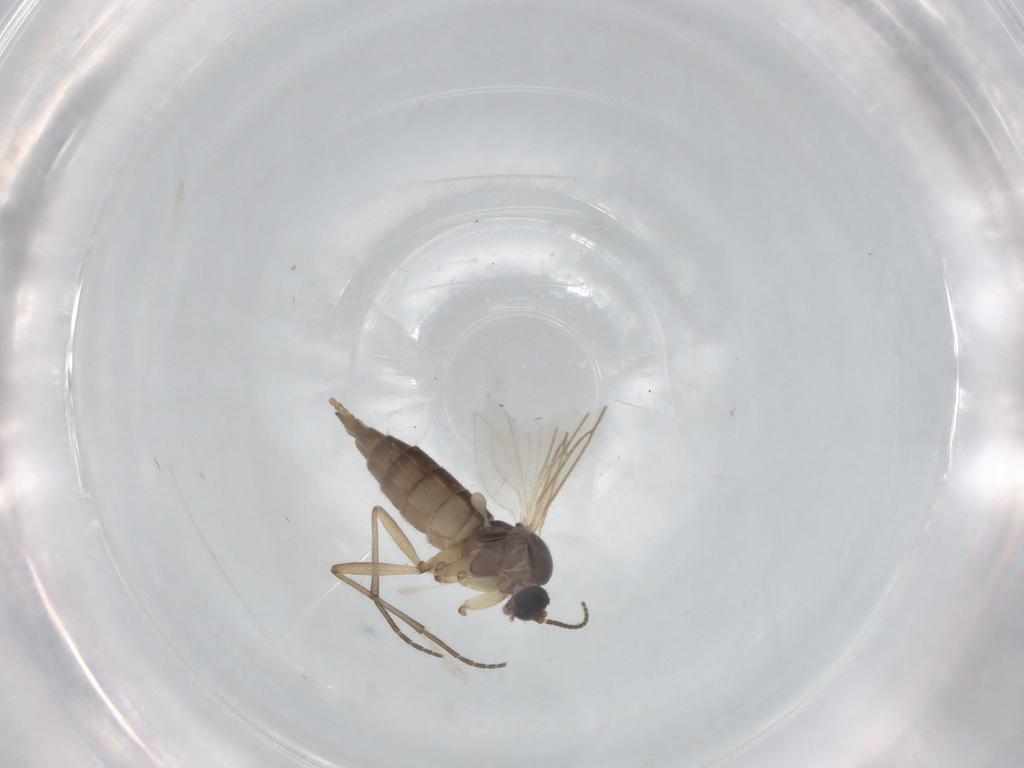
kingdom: Animalia
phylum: Arthropoda
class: Insecta
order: Diptera
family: Sciaridae
